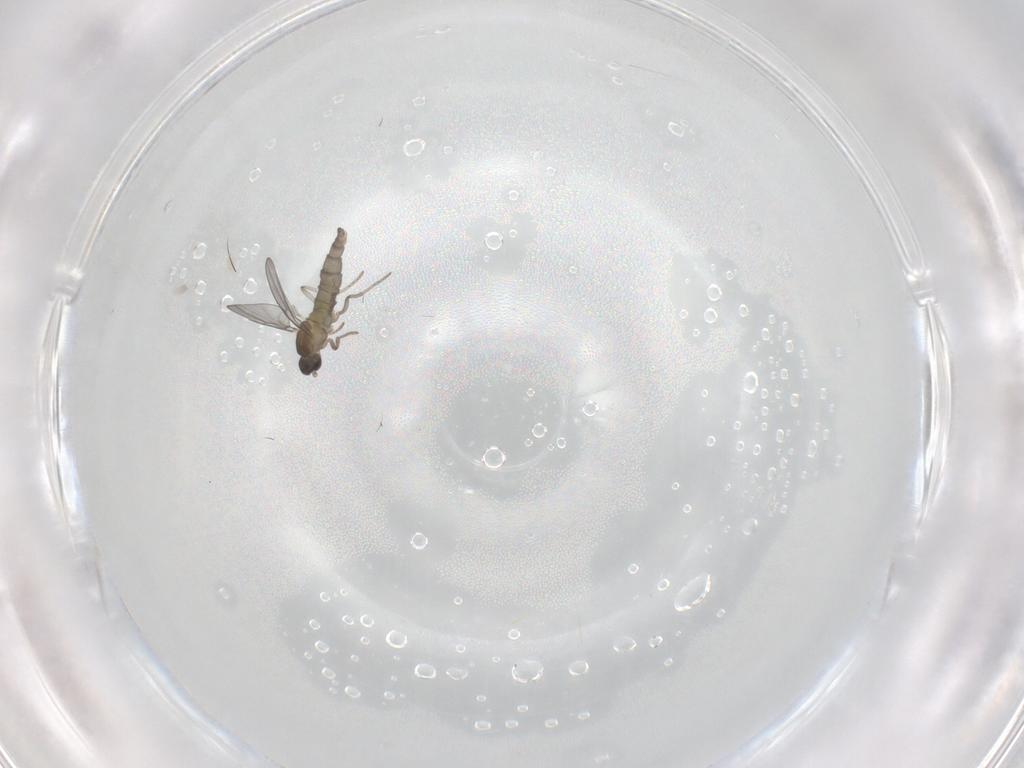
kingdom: Animalia
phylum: Arthropoda
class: Insecta
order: Diptera
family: Cecidomyiidae
